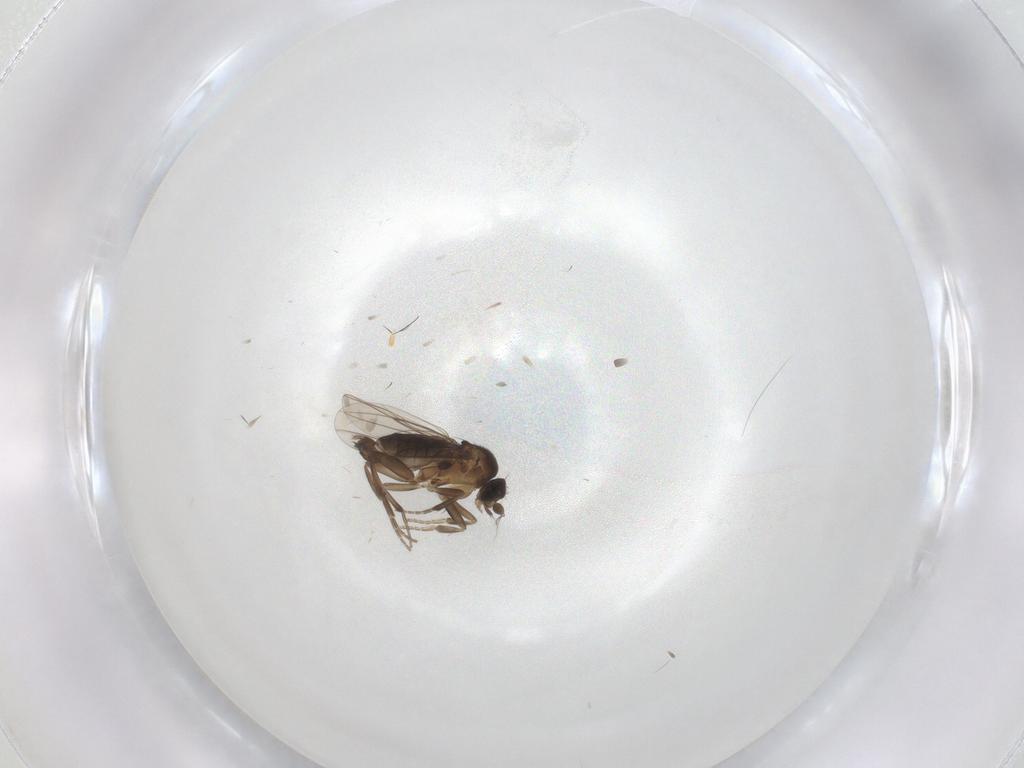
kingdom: Animalia
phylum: Arthropoda
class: Insecta
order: Diptera
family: Phoridae
